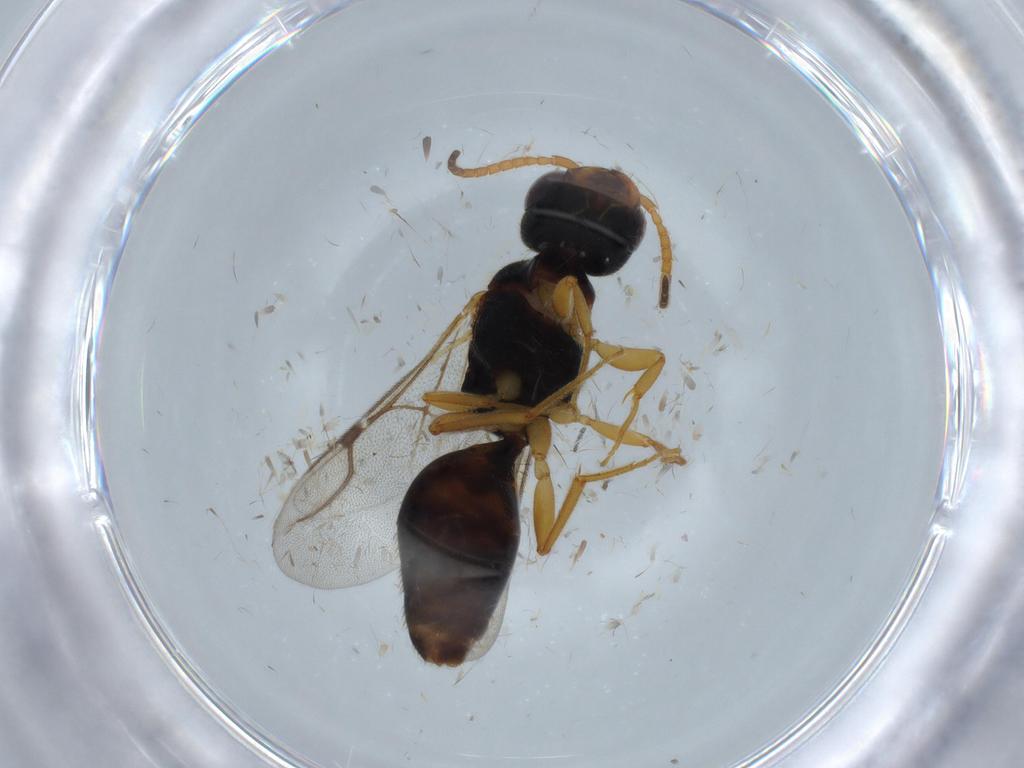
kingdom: Animalia
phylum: Arthropoda
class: Insecta
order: Hymenoptera
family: Bethylidae
